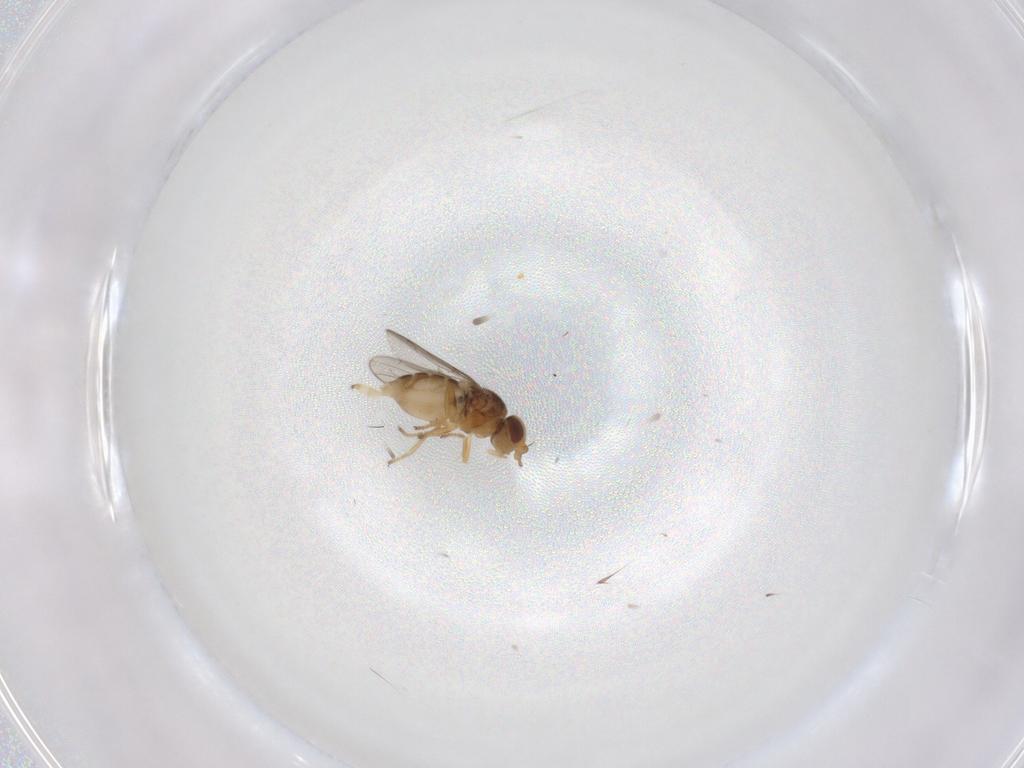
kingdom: Animalia
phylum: Arthropoda
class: Insecta
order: Diptera
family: Chloropidae
